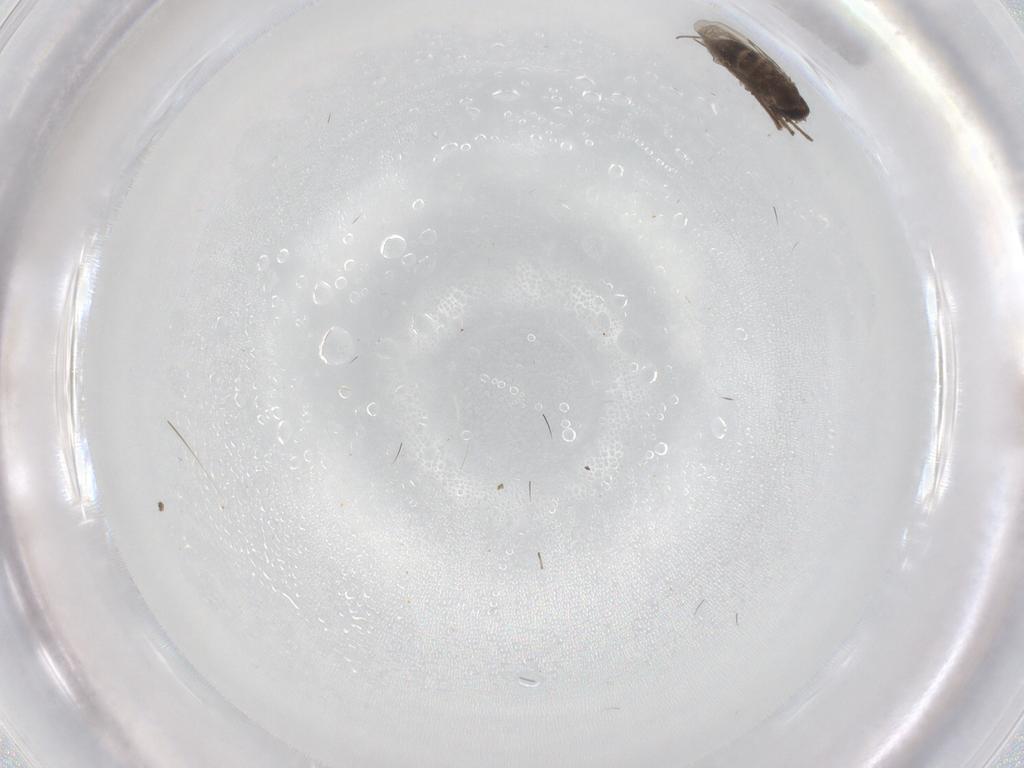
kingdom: Animalia
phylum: Arthropoda
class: Insecta
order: Diptera
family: Phoridae
